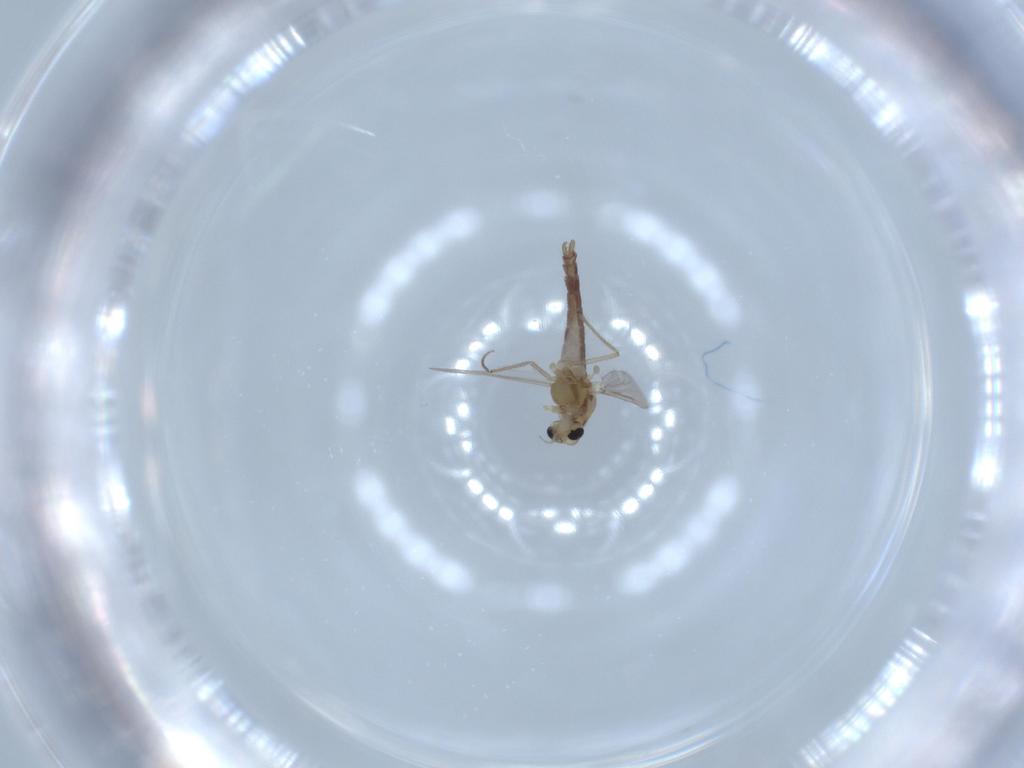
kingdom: Animalia
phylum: Arthropoda
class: Insecta
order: Diptera
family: Chironomidae
